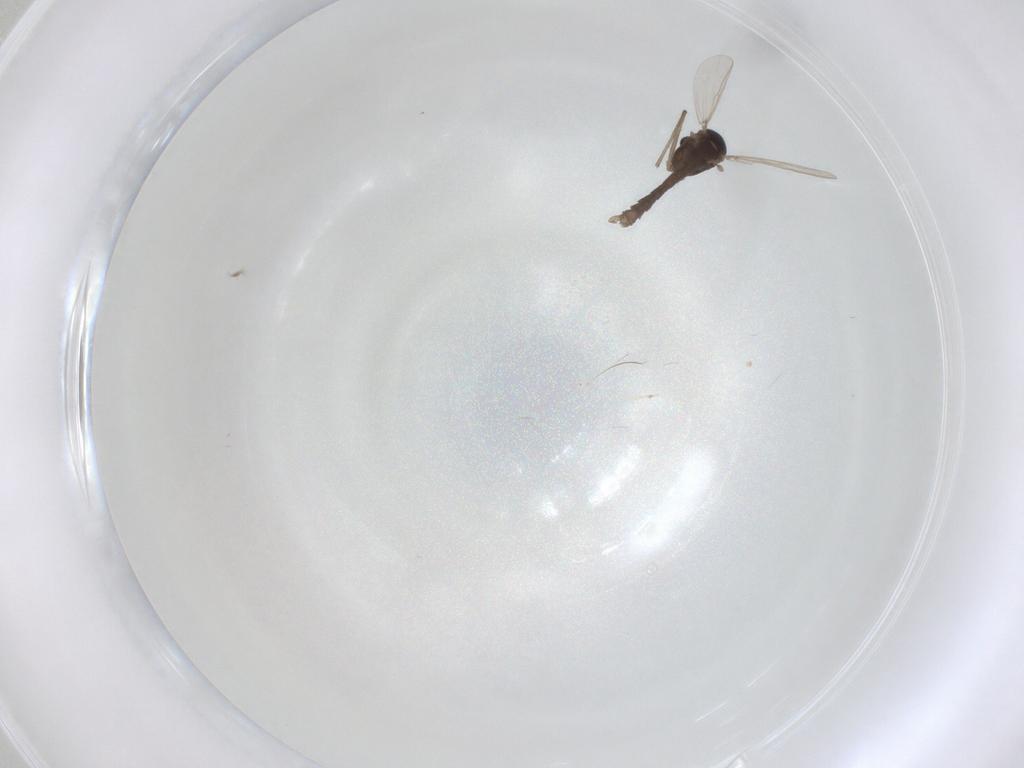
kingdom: Animalia
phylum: Arthropoda
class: Insecta
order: Diptera
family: Chironomidae
